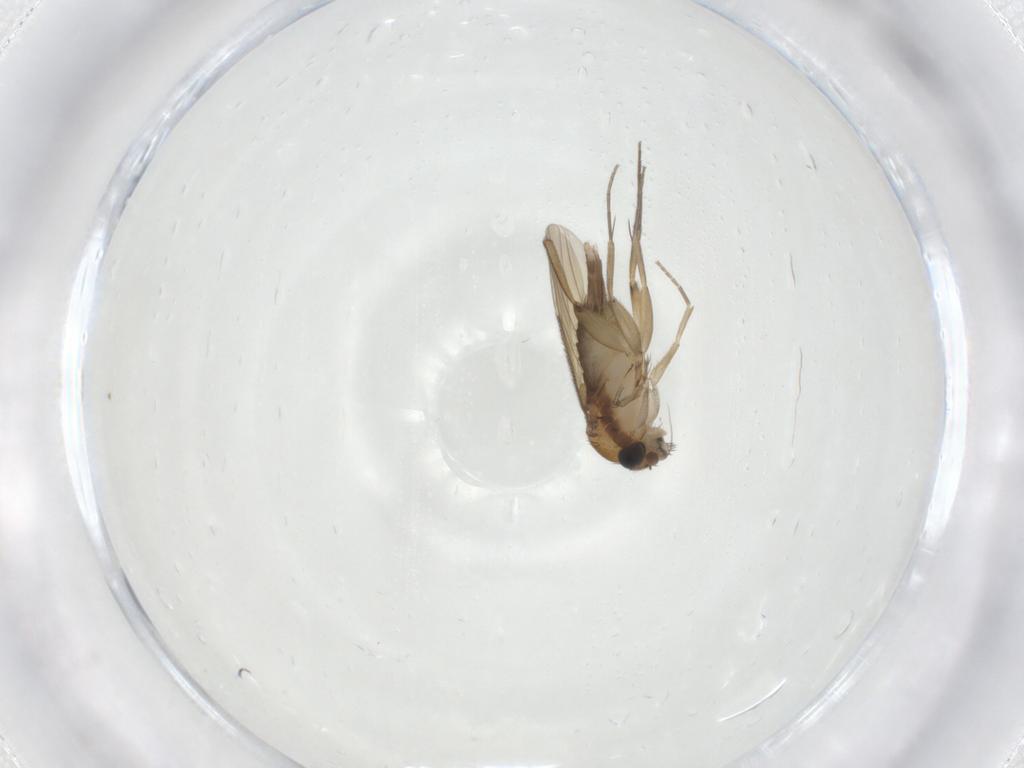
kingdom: Animalia
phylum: Arthropoda
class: Insecta
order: Diptera
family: Phoridae
